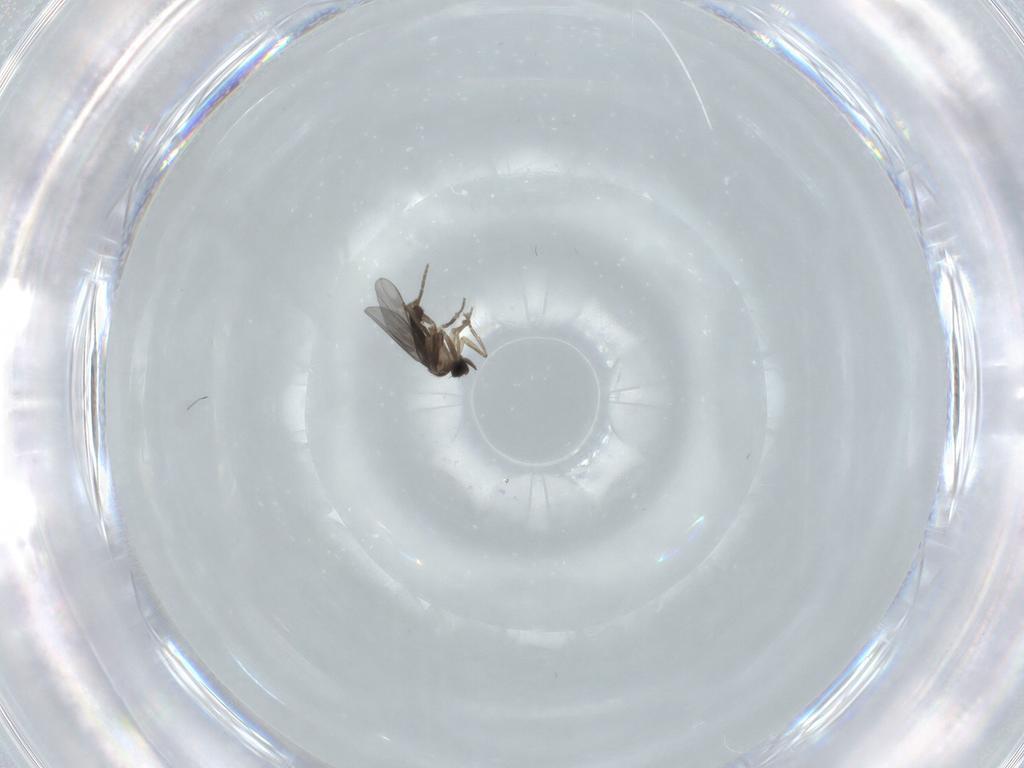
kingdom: Animalia
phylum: Arthropoda
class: Insecta
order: Diptera
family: Phoridae
